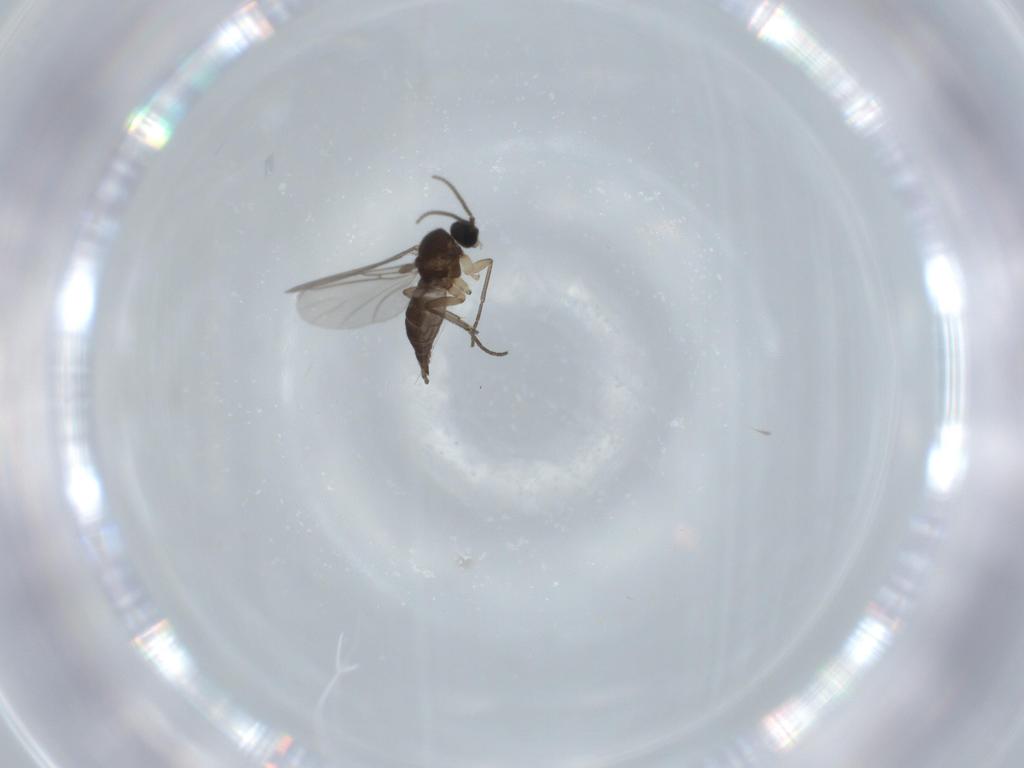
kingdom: Animalia
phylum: Arthropoda
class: Insecta
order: Diptera
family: Sciaridae
